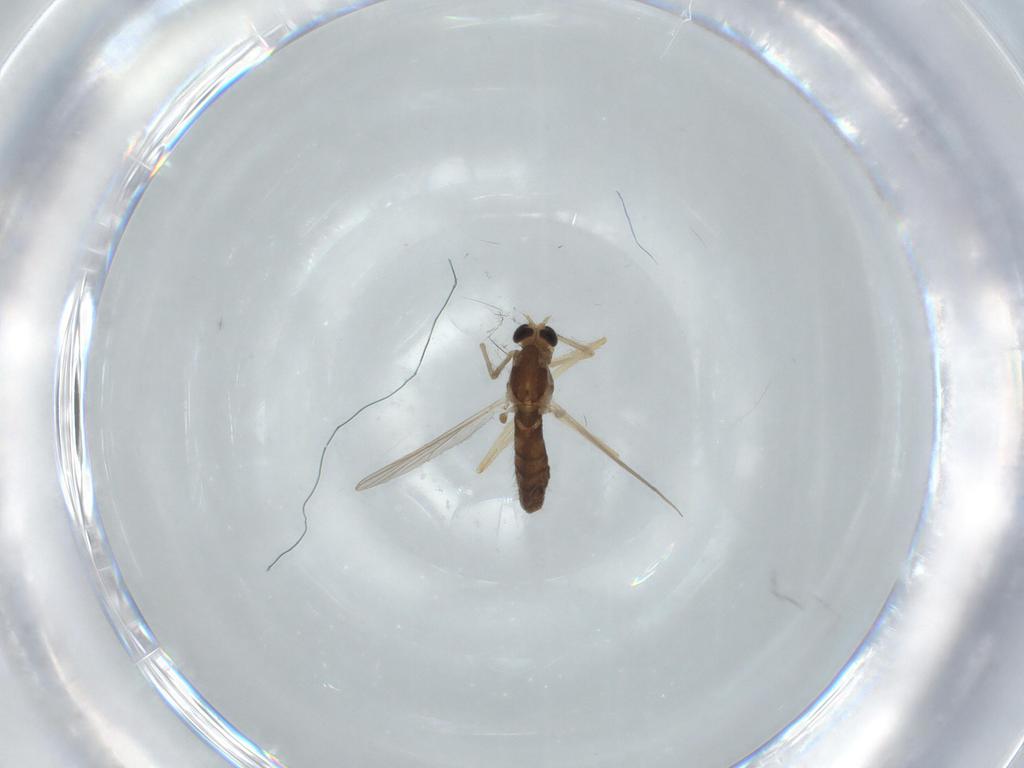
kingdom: Animalia
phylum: Arthropoda
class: Insecta
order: Diptera
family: Chironomidae
